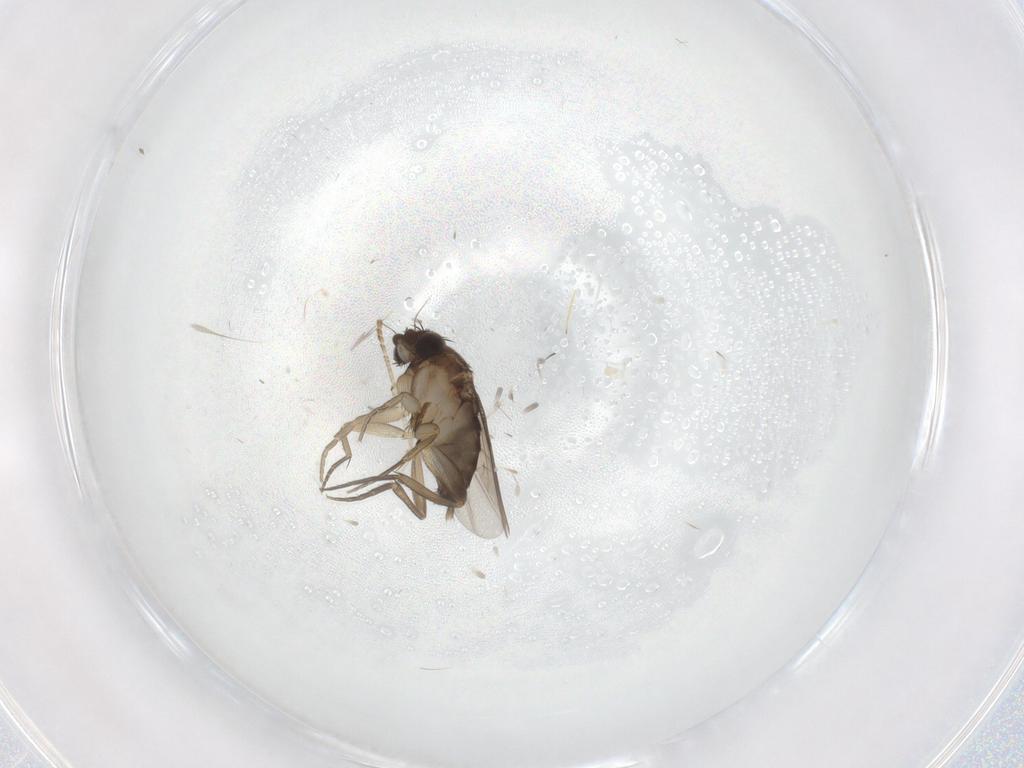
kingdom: Animalia
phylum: Arthropoda
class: Insecta
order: Diptera
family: Phoridae
